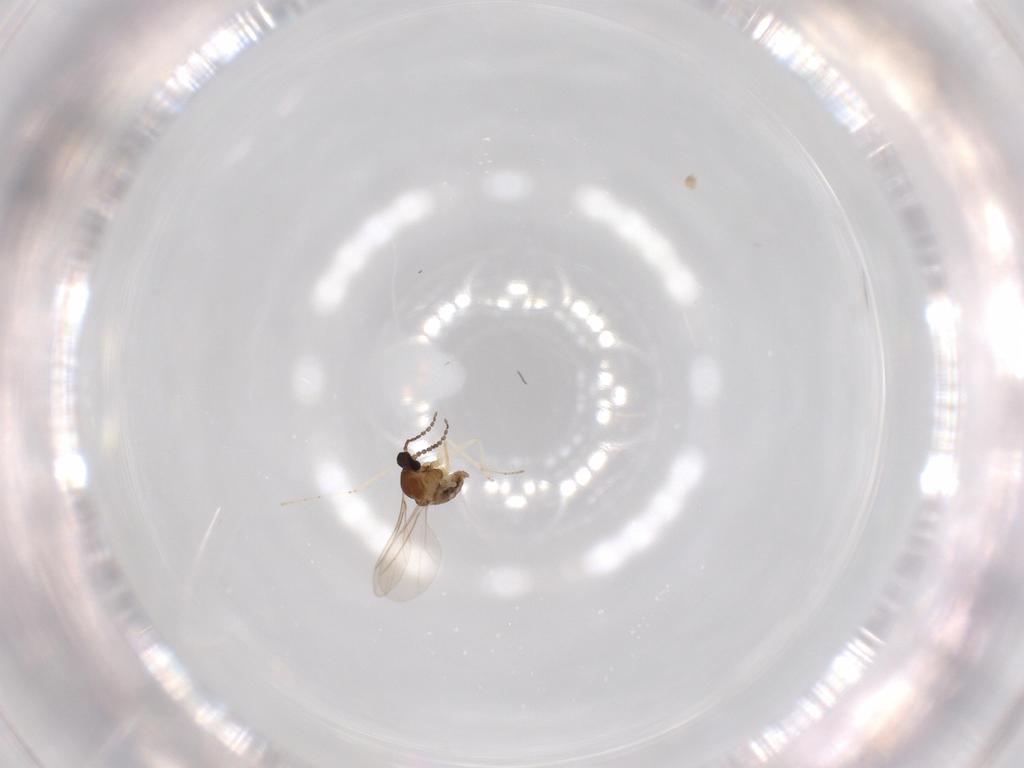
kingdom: Animalia
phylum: Arthropoda
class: Insecta
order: Diptera
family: Cecidomyiidae
